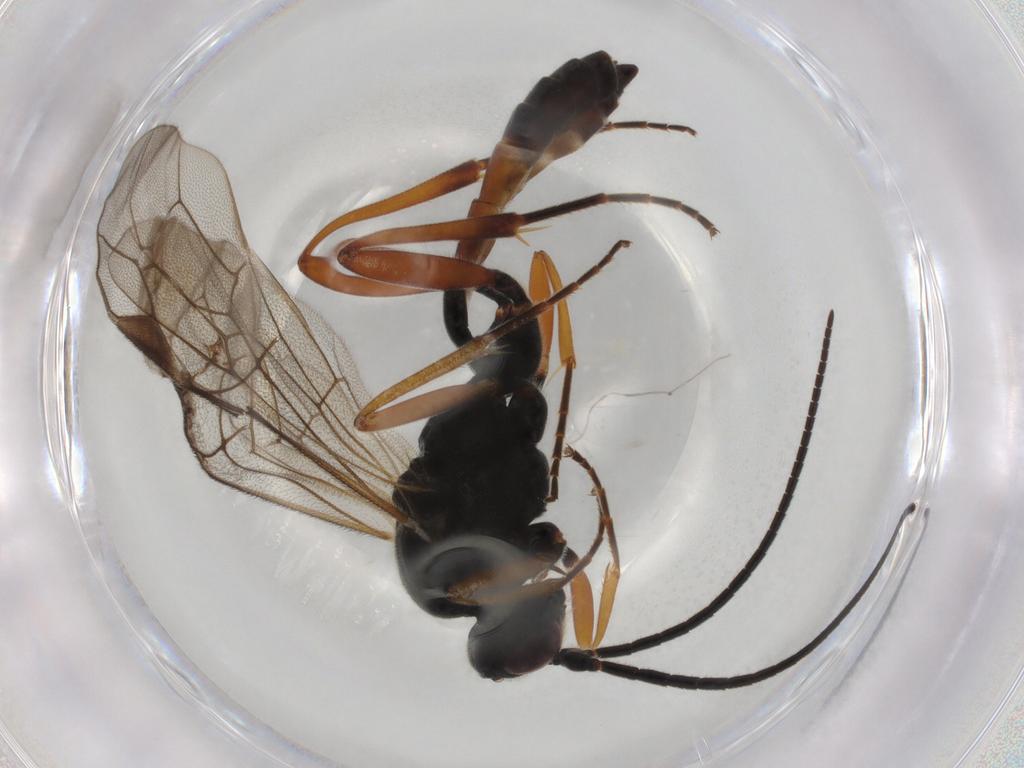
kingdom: Animalia
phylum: Arthropoda
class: Insecta
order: Hymenoptera
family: Formicidae
